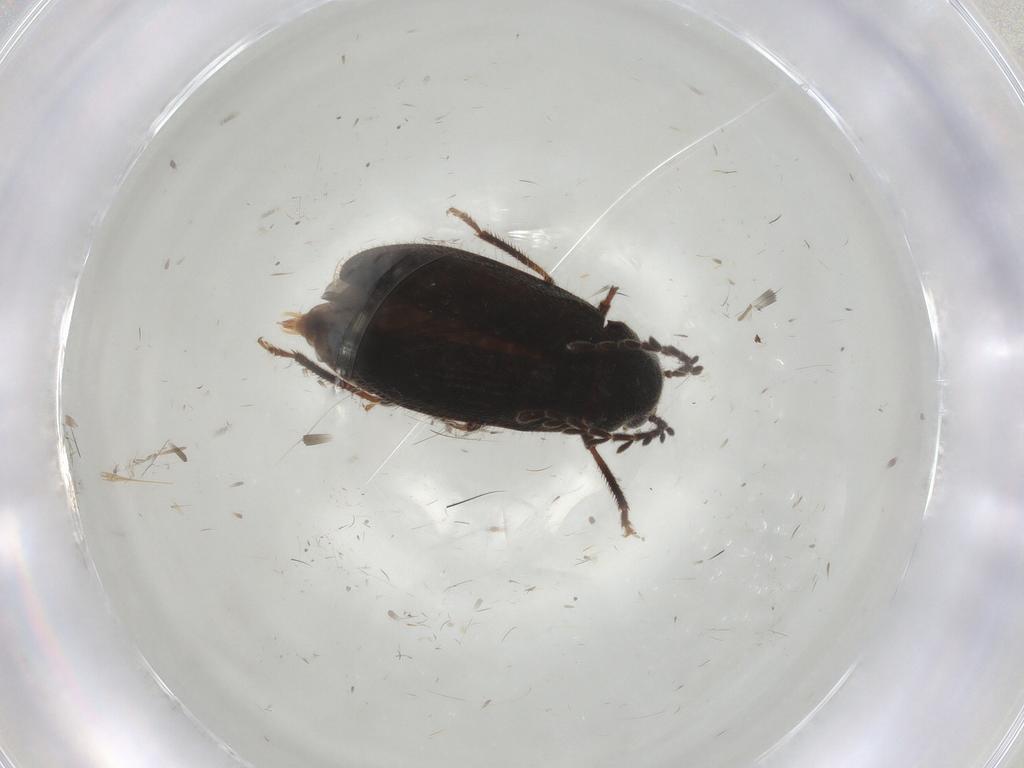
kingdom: Animalia
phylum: Arthropoda
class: Insecta
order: Coleoptera
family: Ptilodactylidae
